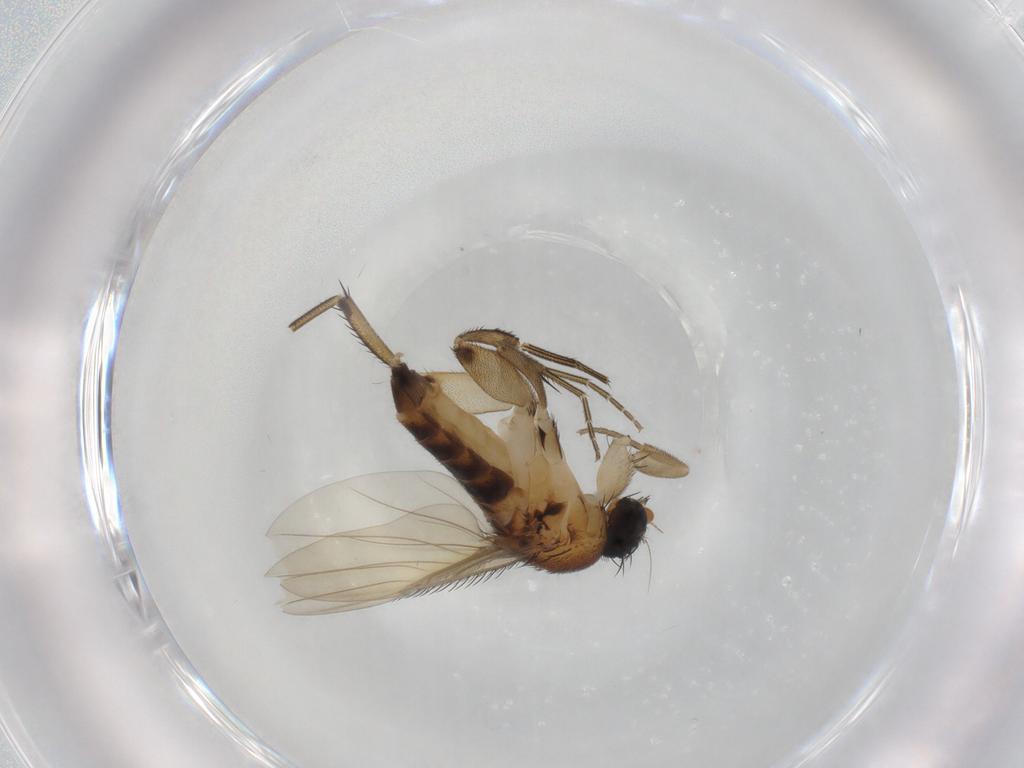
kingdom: Animalia
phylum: Arthropoda
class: Insecta
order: Diptera
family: Phoridae
